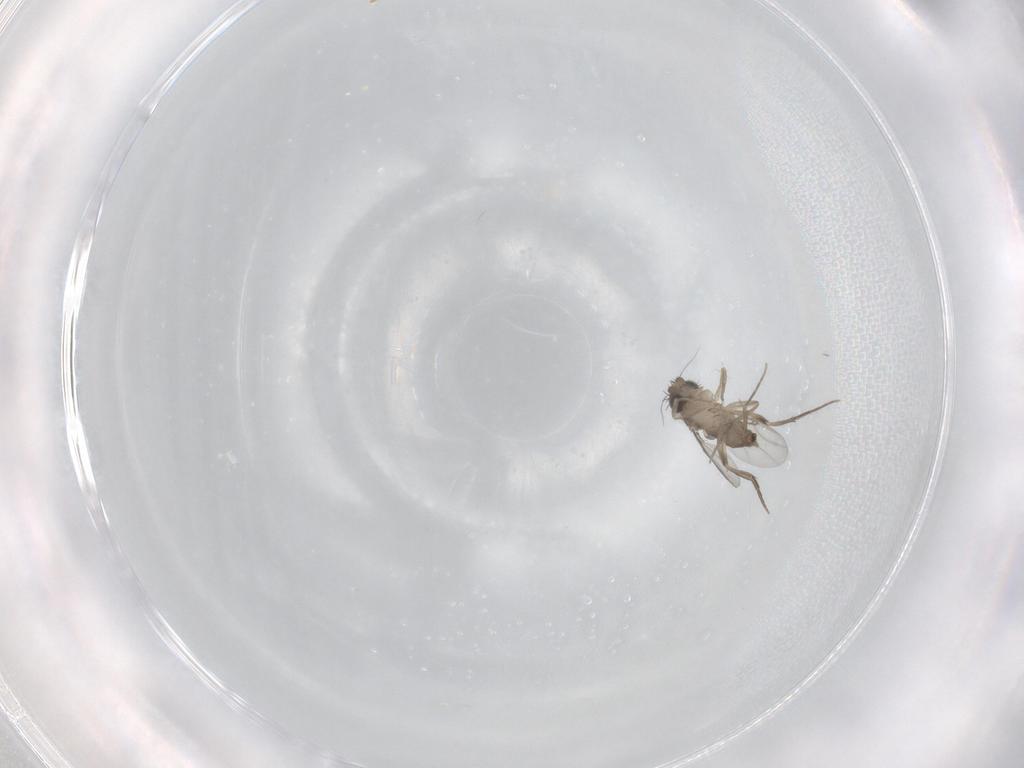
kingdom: Animalia
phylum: Arthropoda
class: Insecta
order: Diptera
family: Phoridae
